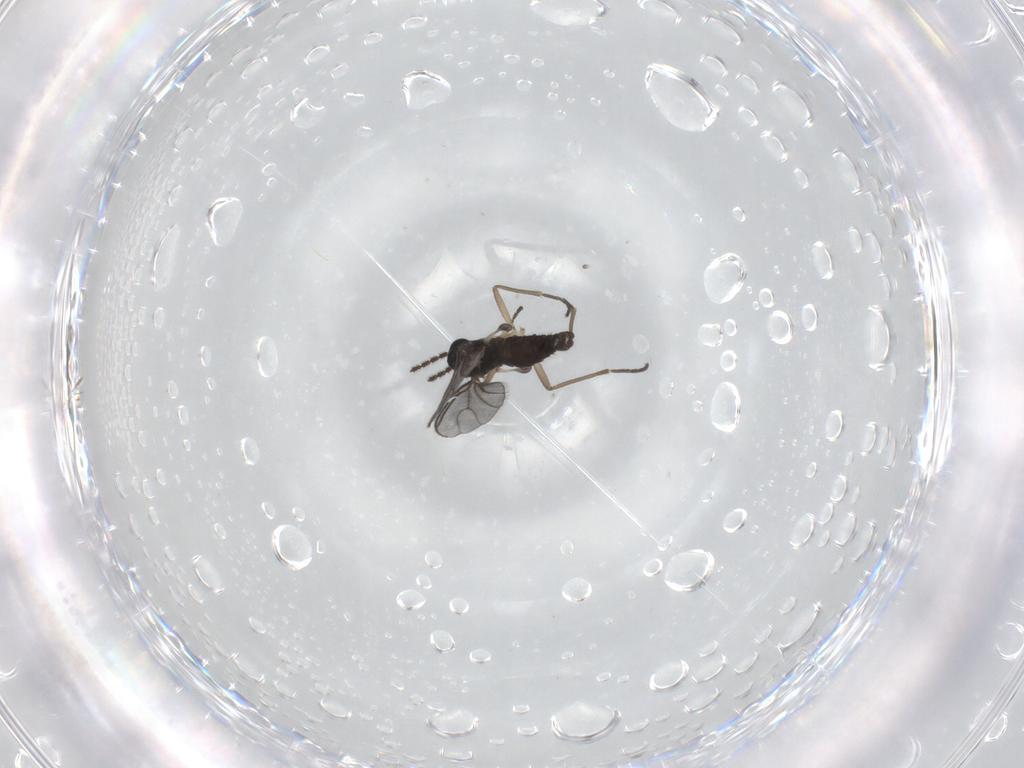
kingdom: Animalia
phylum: Arthropoda
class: Insecta
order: Diptera
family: Sciaridae
